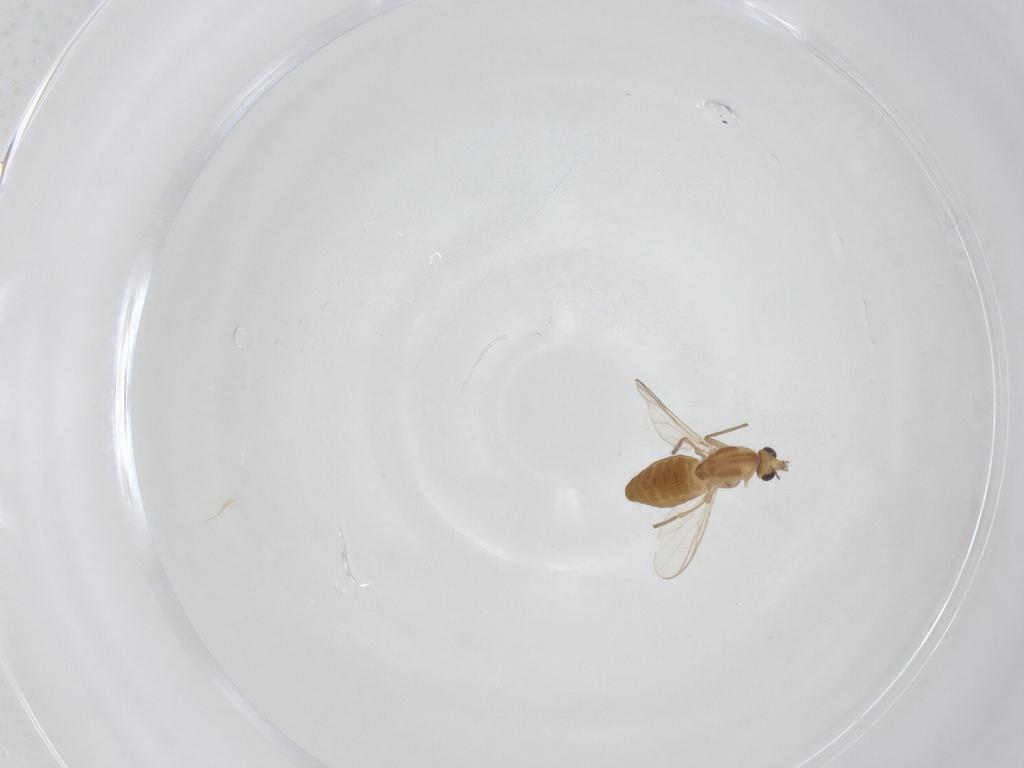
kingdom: Animalia
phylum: Arthropoda
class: Insecta
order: Diptera
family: Chironomidae
